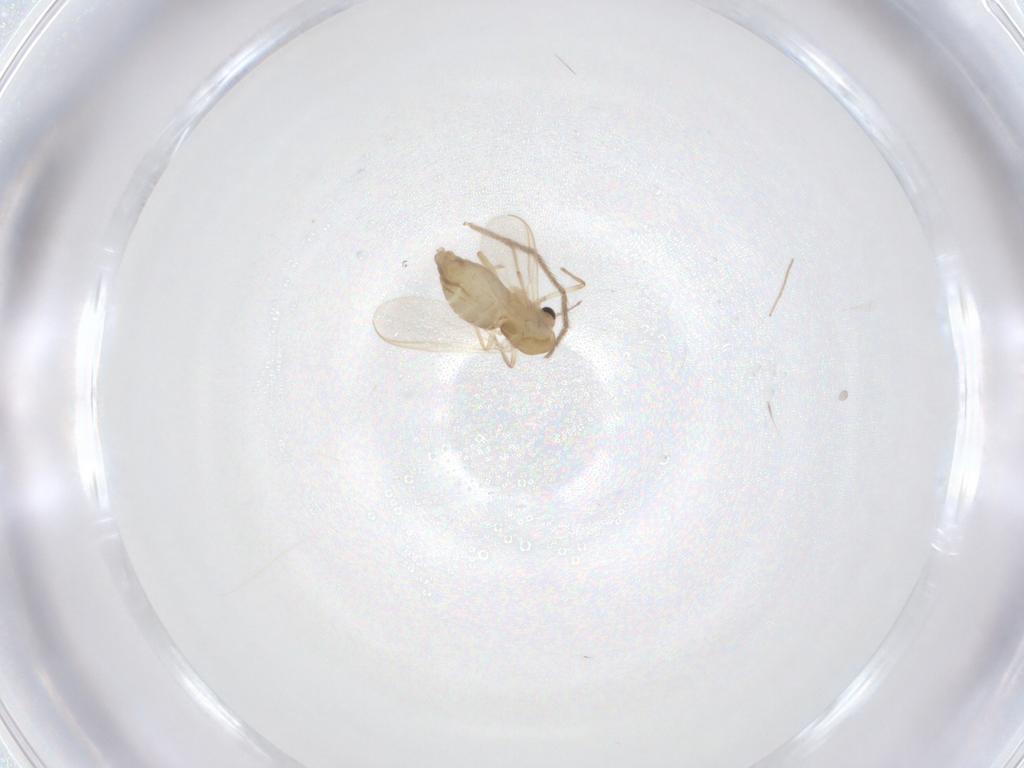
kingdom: Animalia
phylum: Arthropoda
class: Insecta
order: Diptera
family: Chironomidae
